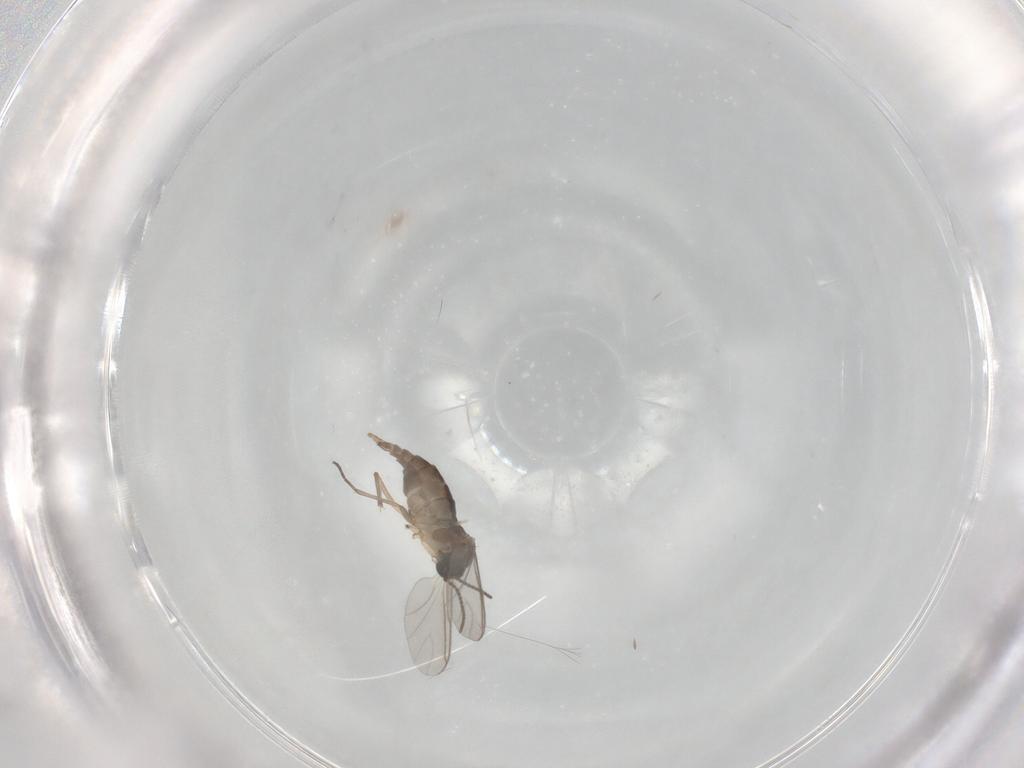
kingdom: Animalia
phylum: Arthropoda
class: Insecta
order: Diptera
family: Sciaridae
